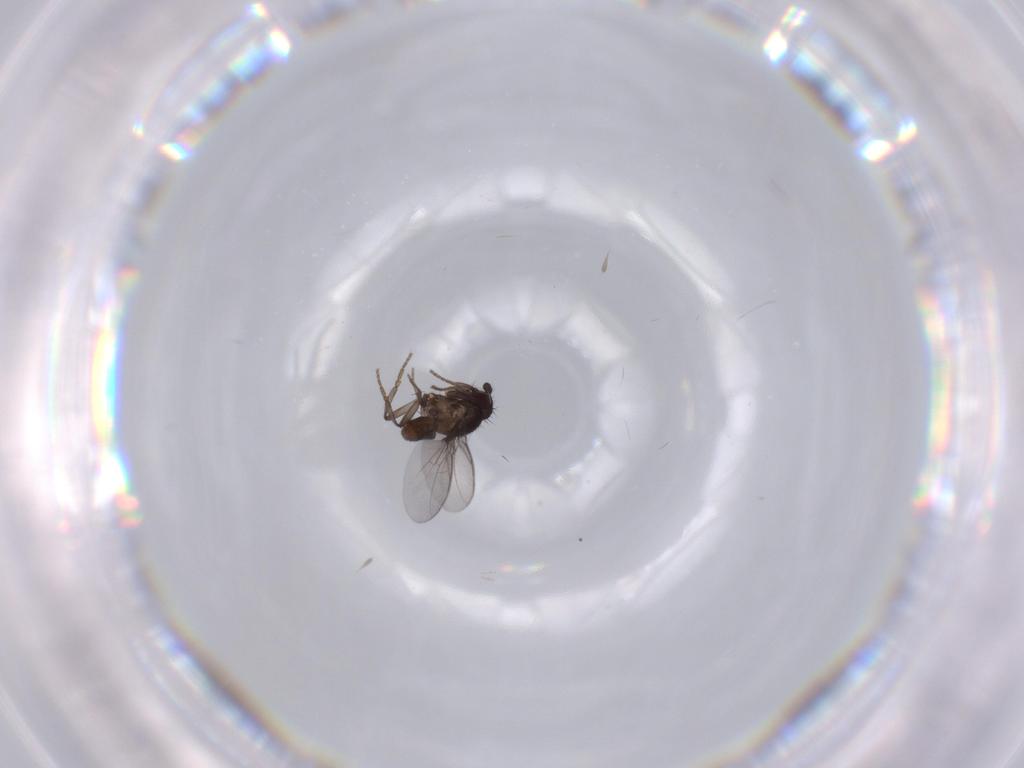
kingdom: Animalia
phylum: Arthropoda
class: Insecta
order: Diptera
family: Sphaeroceridae
